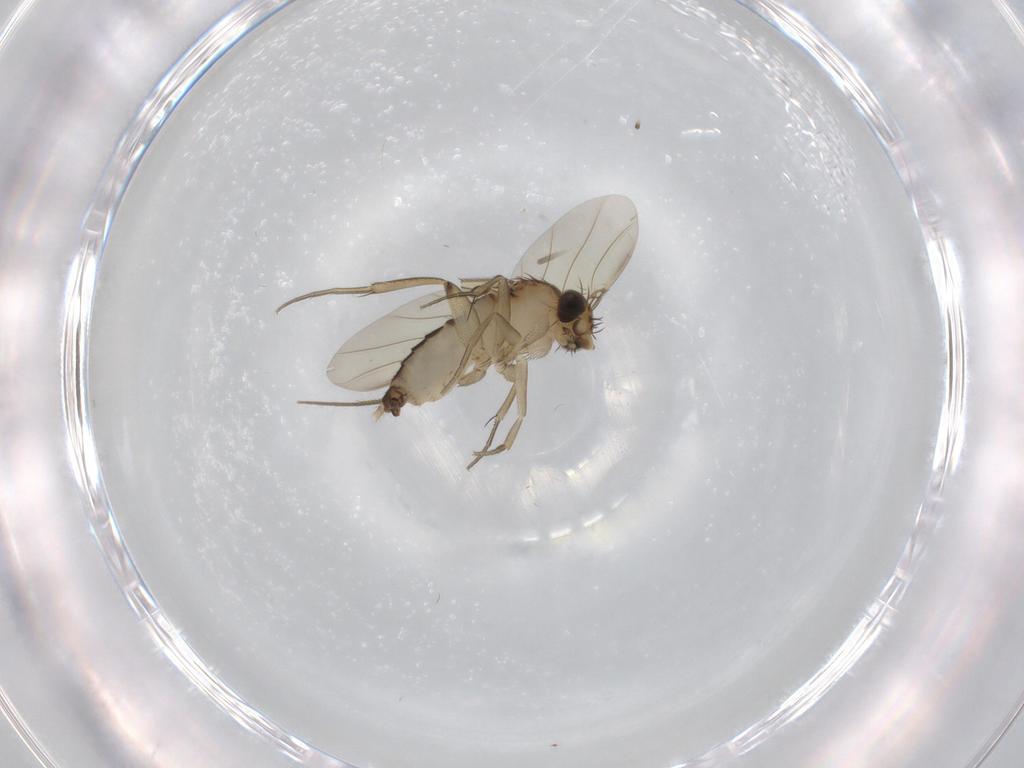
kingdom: Animalia
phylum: Arthropoda
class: Insecta
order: Diptera
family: Phoridae
